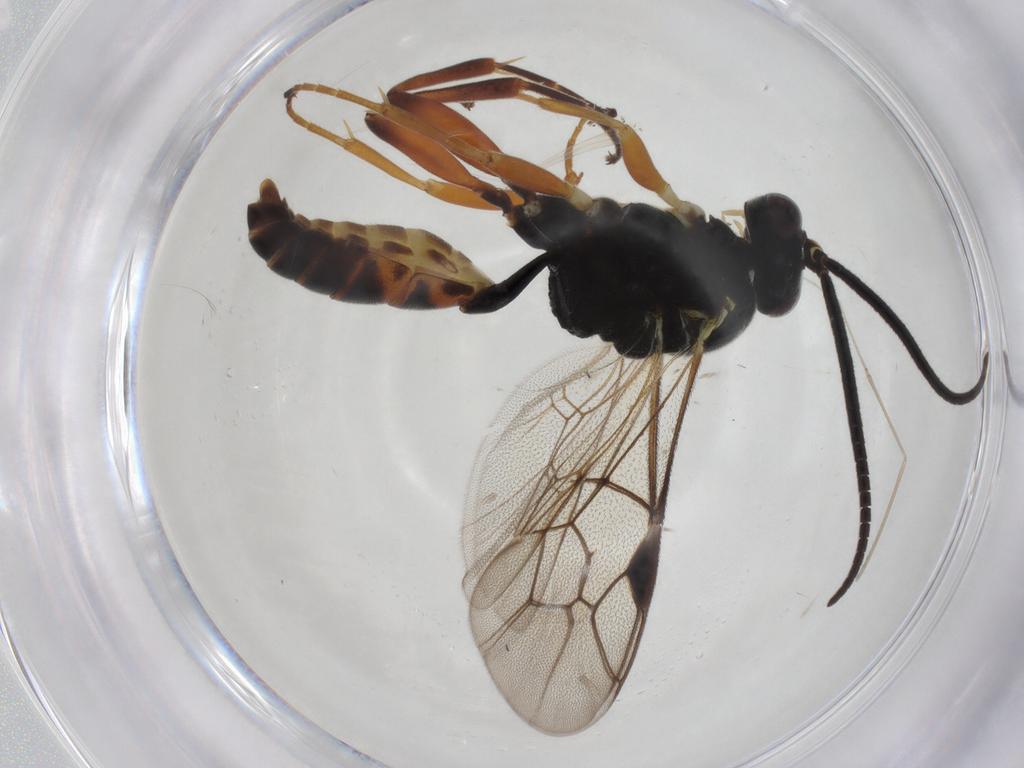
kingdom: Animalia
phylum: Arthropoda
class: Insecta
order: Hymenoptera
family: Ichneumonidae
